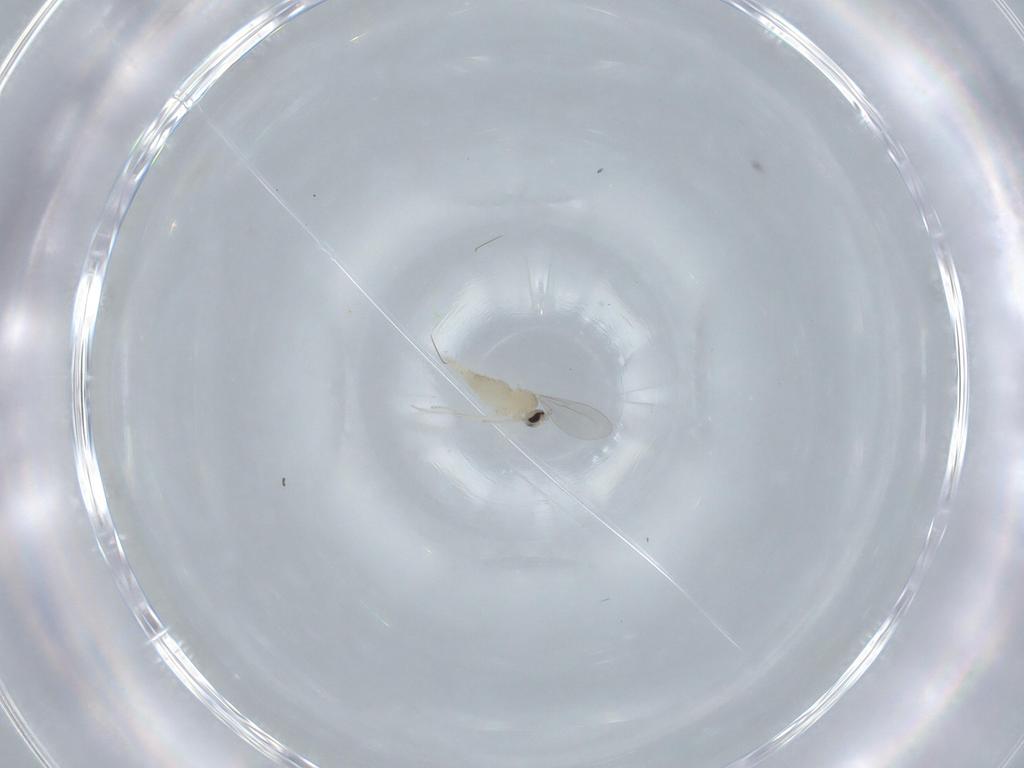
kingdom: Animalia
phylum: Arthropoda
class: Insecta
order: Diptera
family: Cecidomyiidae
